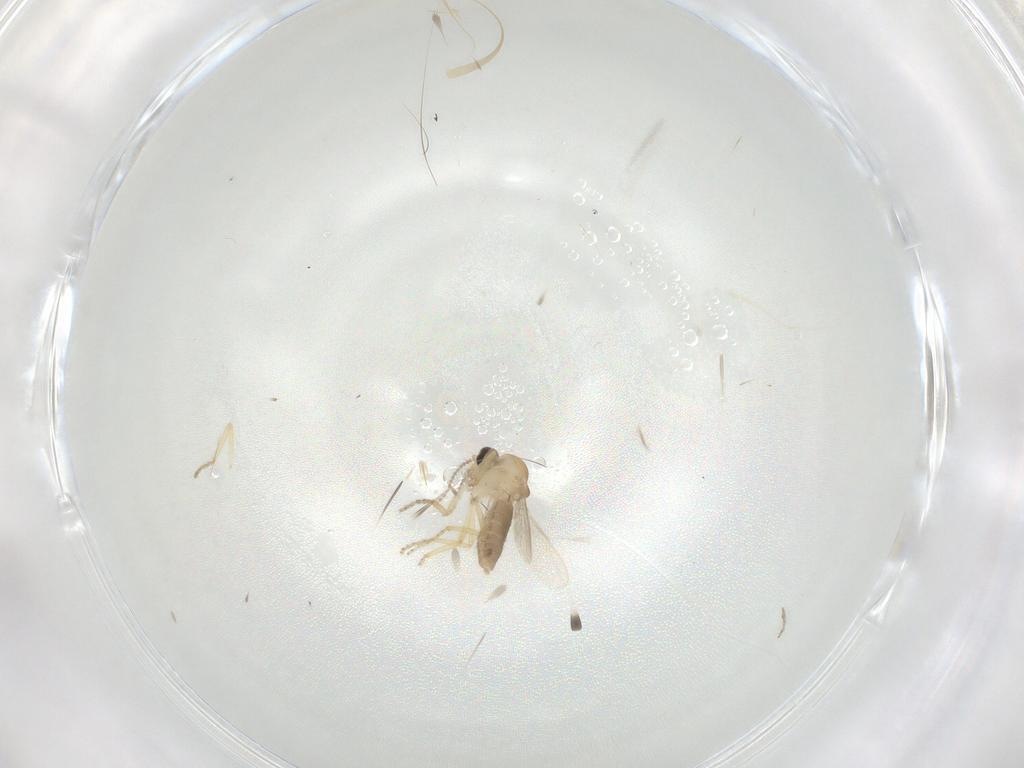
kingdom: Animalia
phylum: Arthropoda
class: Insecta
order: Diptera
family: Ceratopogonidae
